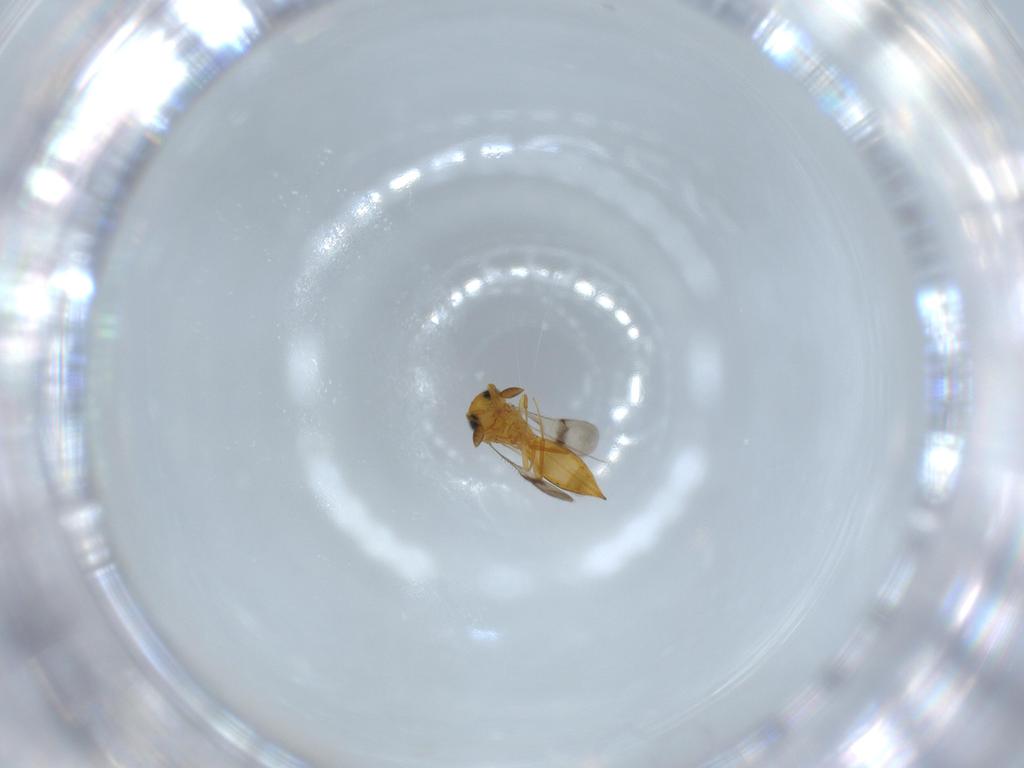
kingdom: Animalia
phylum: Arthropoda
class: Insecta
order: Hymenoptera
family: Scelionidae
